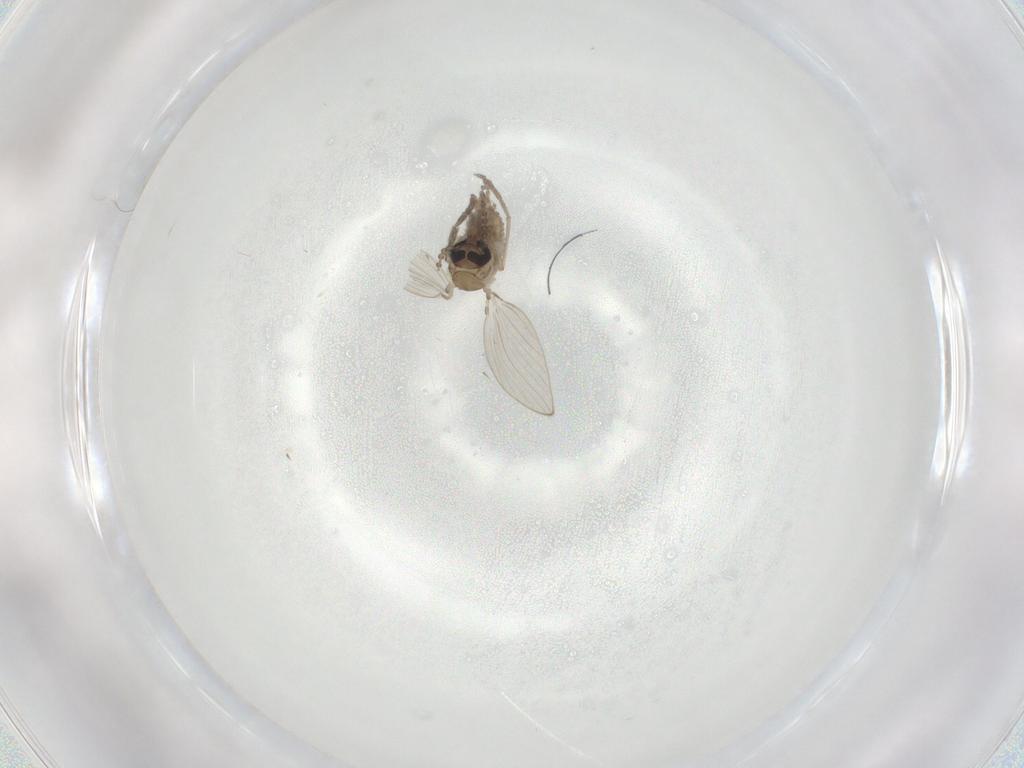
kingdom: Animalia
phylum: Arthropoda
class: Insecta
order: Diptera
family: Psychodidae
